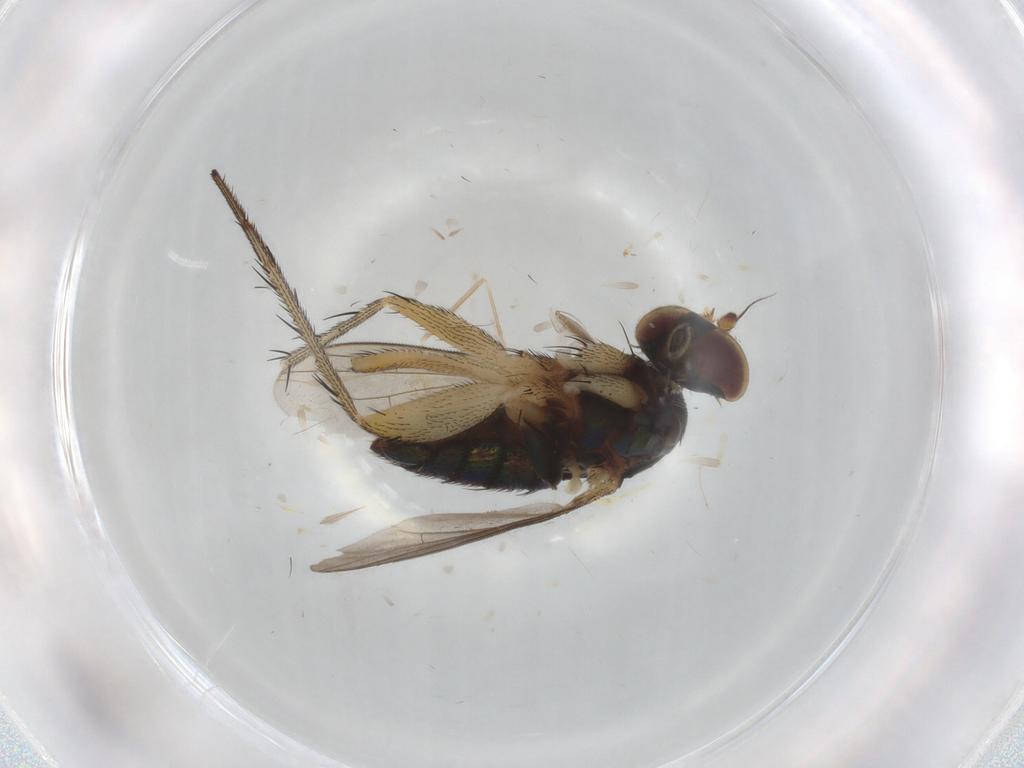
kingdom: Animalia
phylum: Arthropoda
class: Insecta
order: Diptera
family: Dolichopodidae
